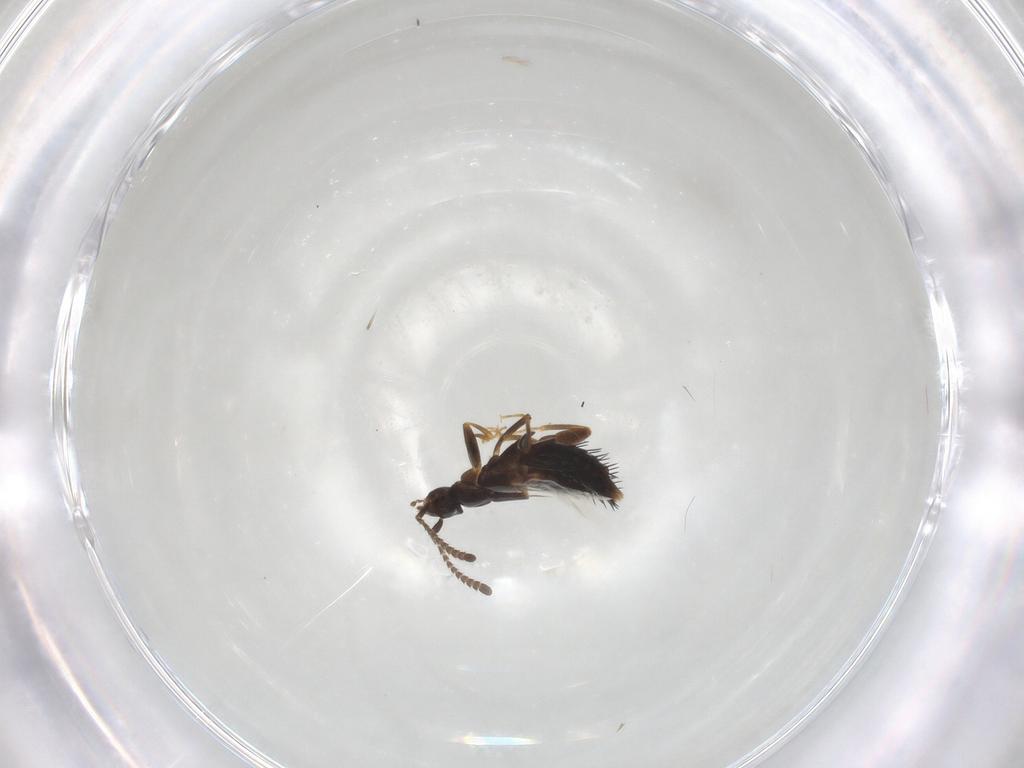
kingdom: Animalia
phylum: Arthropoda
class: Insecta
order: Coleoptera
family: Staphylinidae
